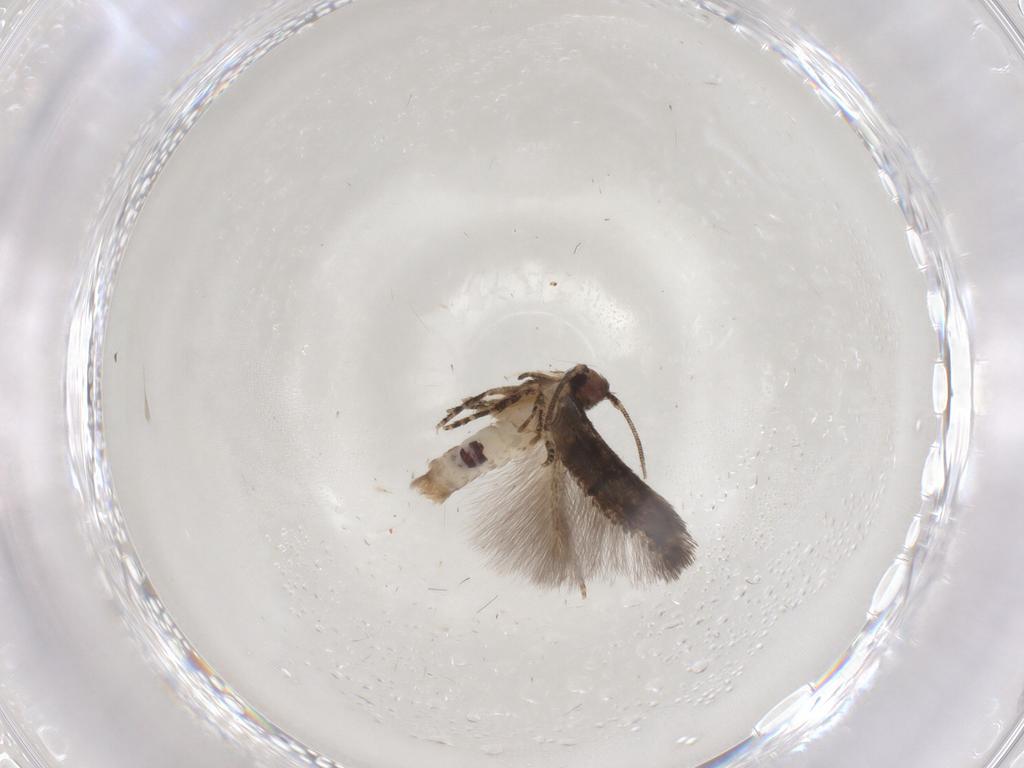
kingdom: Animalia
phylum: Arthropoda
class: Insecta
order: Lepidoptera
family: Cosmopterigidae
